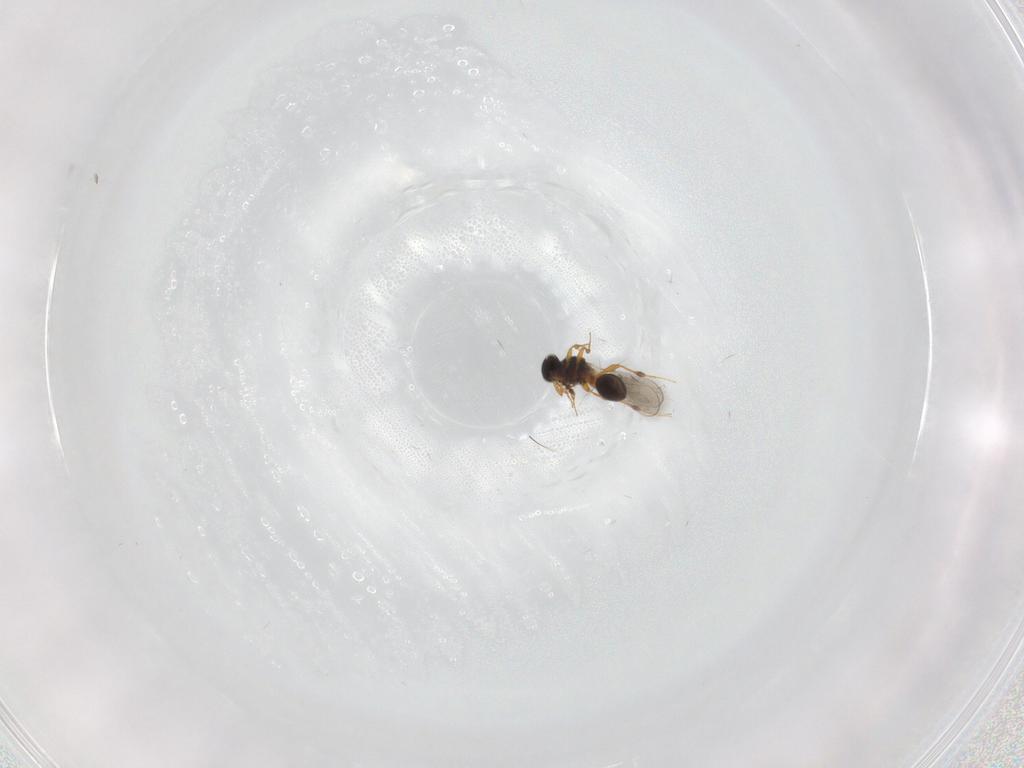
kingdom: Animalia
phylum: Arthropoda
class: Insecta
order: Hymenoptera
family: Platygastridae
